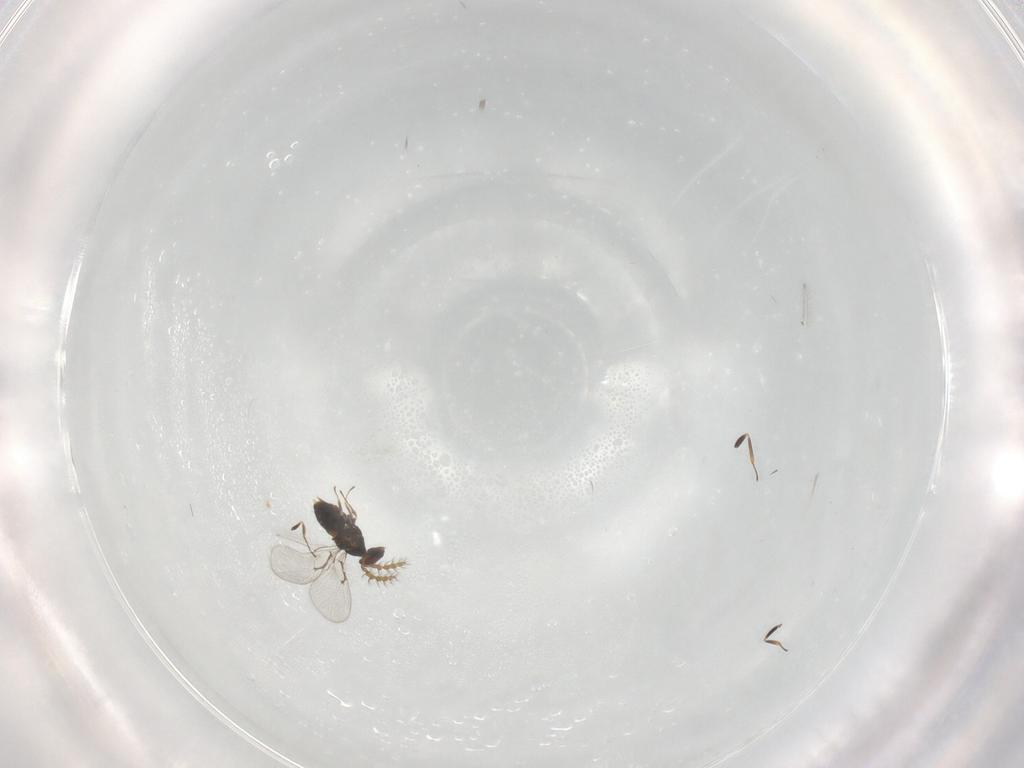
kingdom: Animalia
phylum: Arthropoda
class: Insecta
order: Hymenoptera
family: Trichogrammatidae
